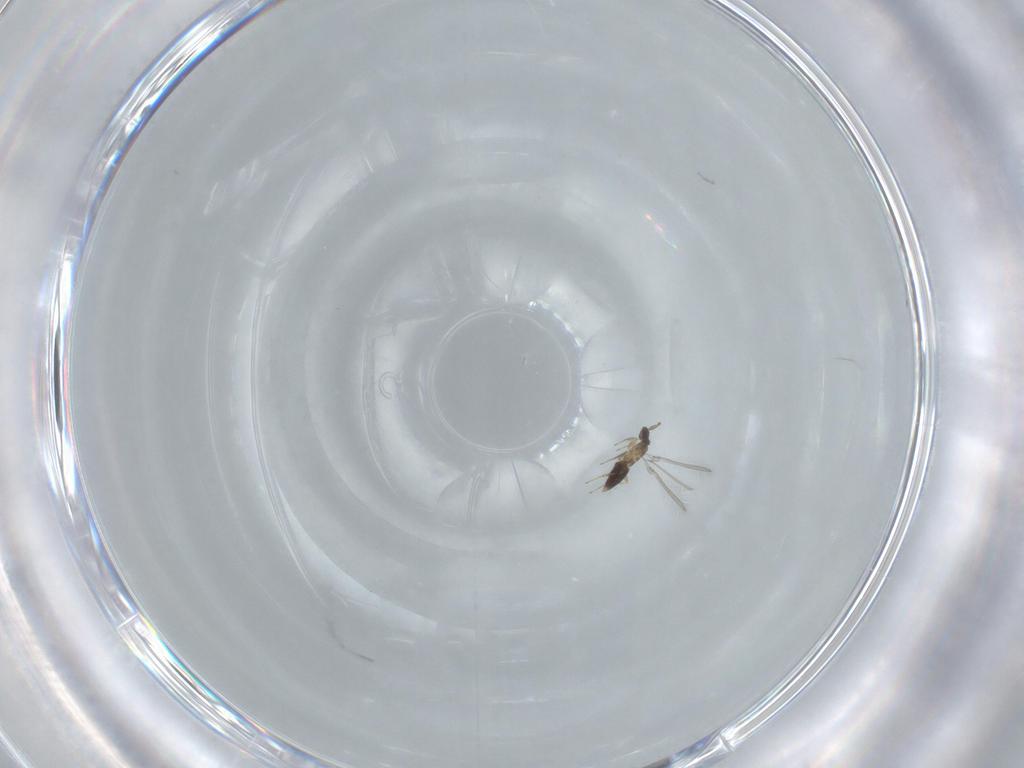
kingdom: Animalia
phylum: Arthropoda
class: Insecta
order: Hymenoptera
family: Mymaridae
